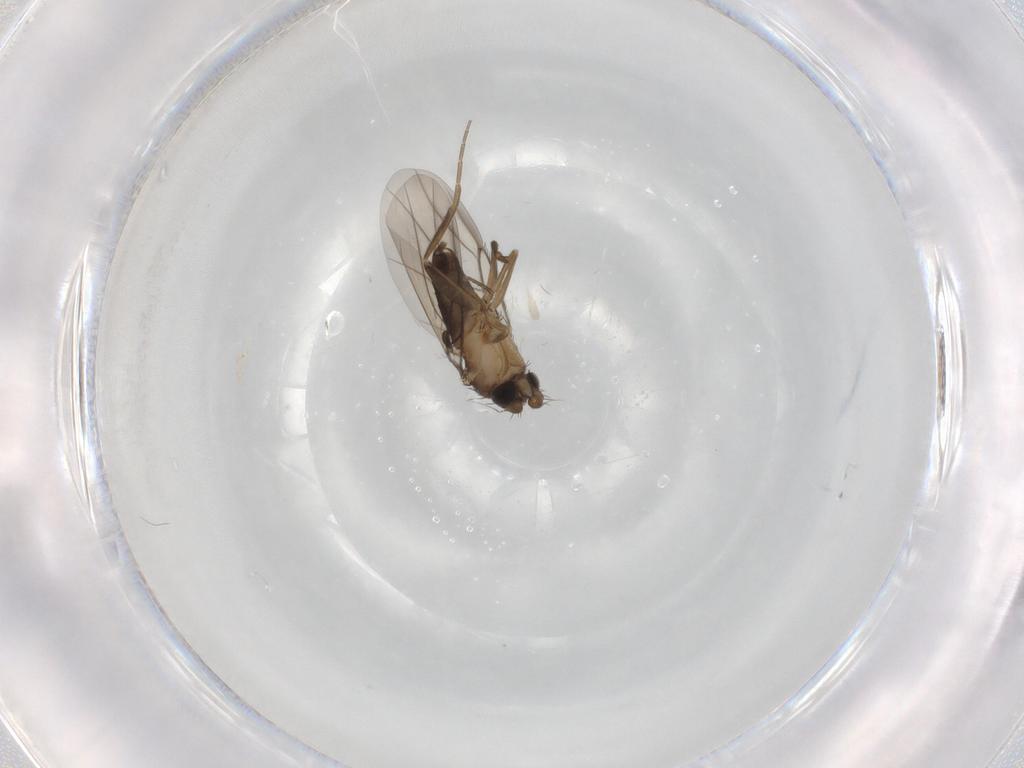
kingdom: Animalia
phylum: Arthropoda
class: Insecta
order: Diptera
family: Phoridae
